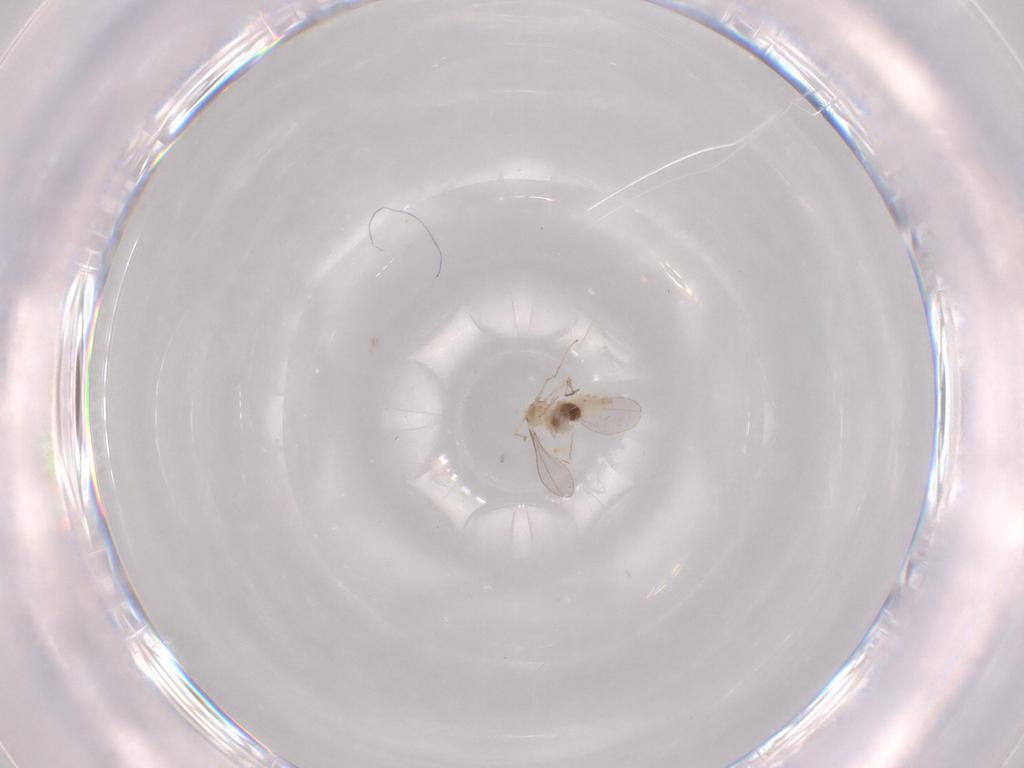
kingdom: Animalia
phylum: Arthropoda
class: Insecta
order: Diptera
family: Cecidomyiidae
